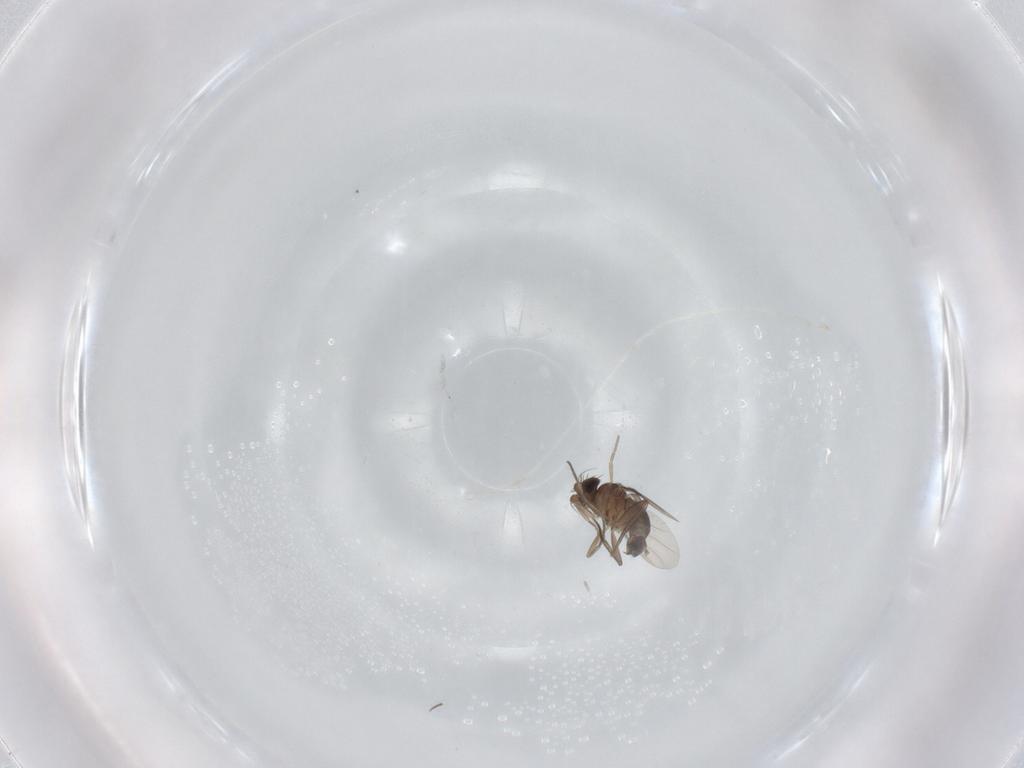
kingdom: Animalia
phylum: Arthropoda
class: Insecta
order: Diptera
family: Phoridae
